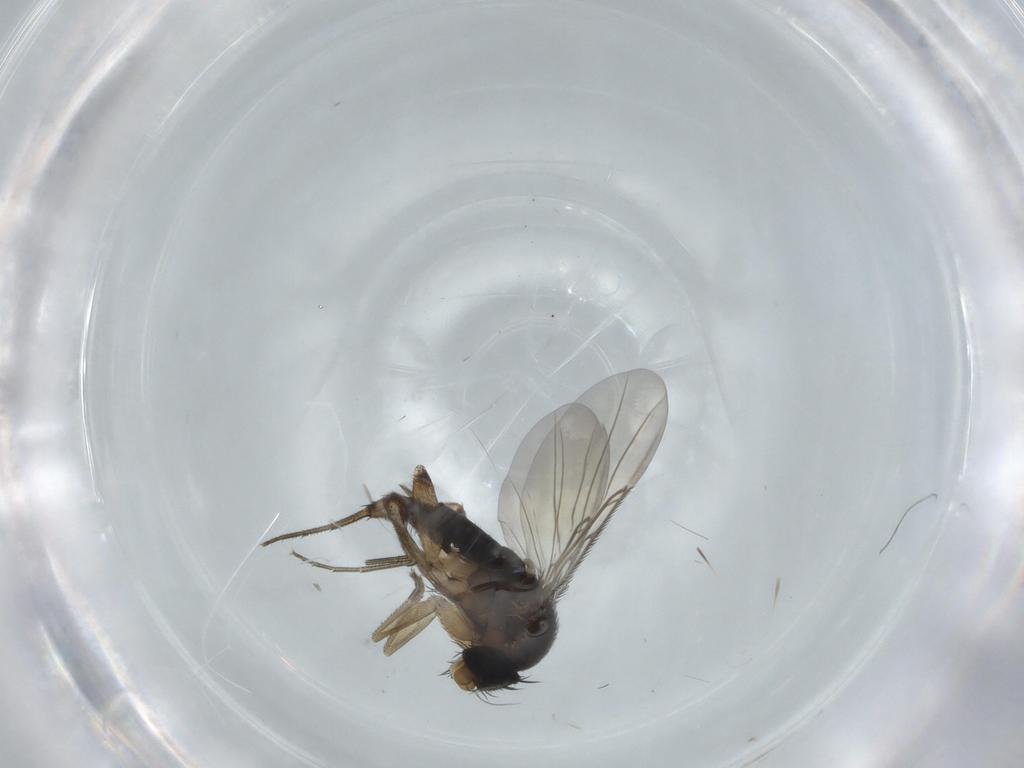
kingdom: Animalia
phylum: Arthropoda
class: Insecta
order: Diptera
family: Phoridae
